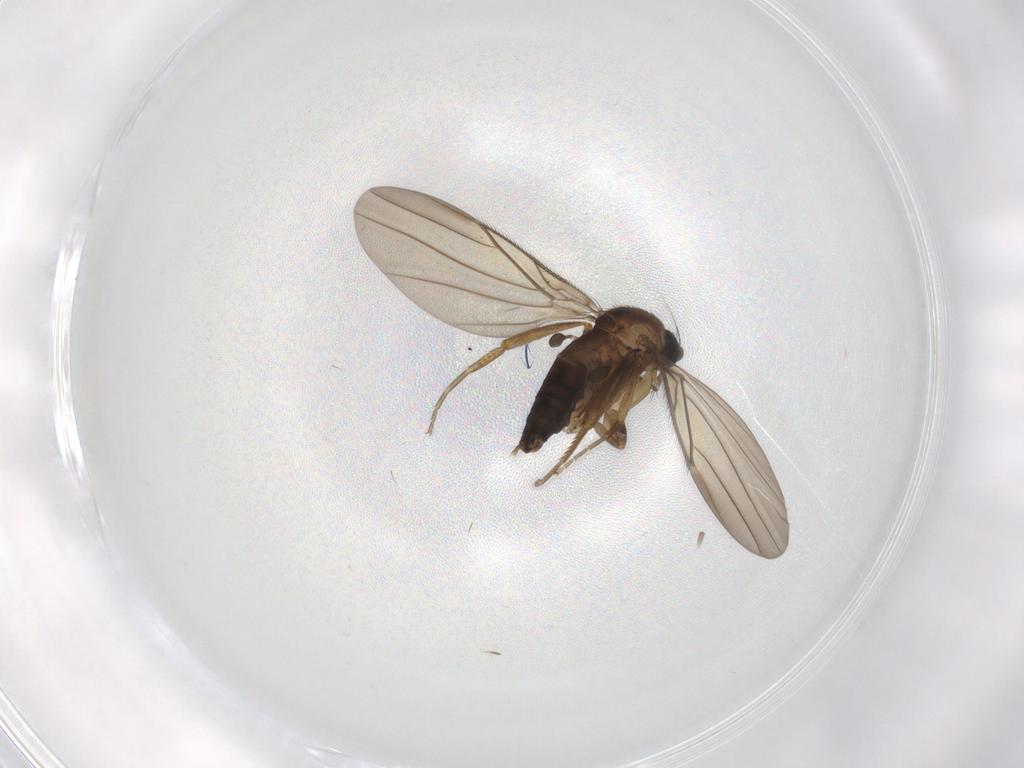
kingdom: Animalia
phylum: Arthropoda
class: Insecta
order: Diptera
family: Phoridae
